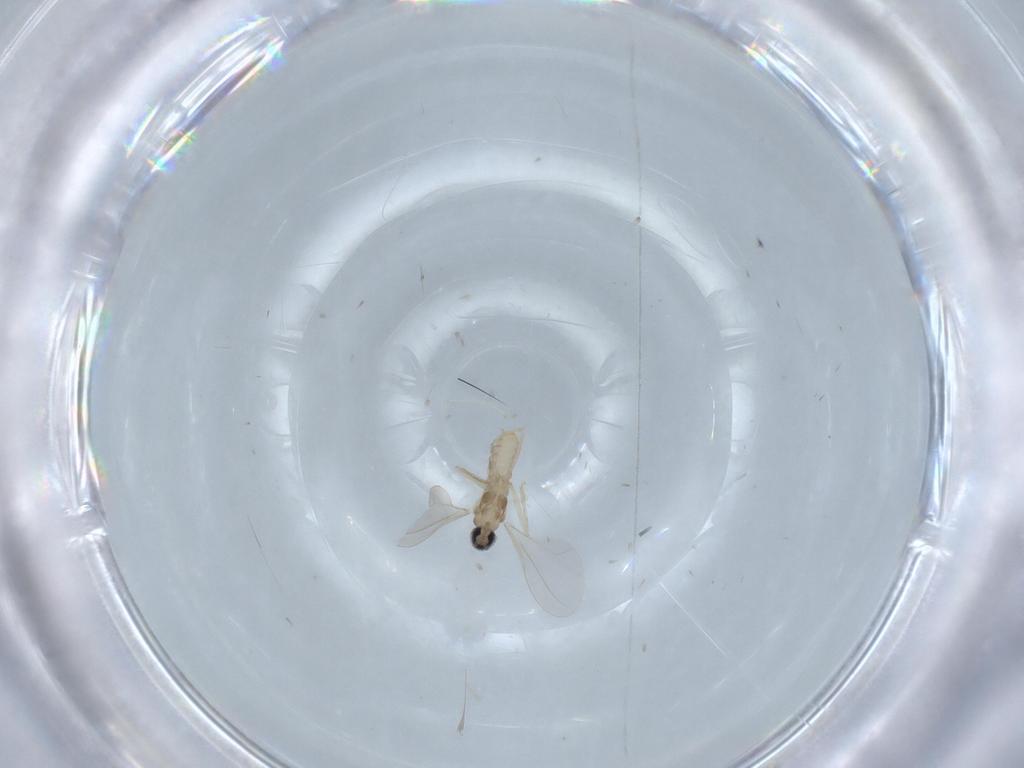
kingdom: Animalia
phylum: Arthropoda
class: Insecta
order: Diptera
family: Cecidomyiidae
